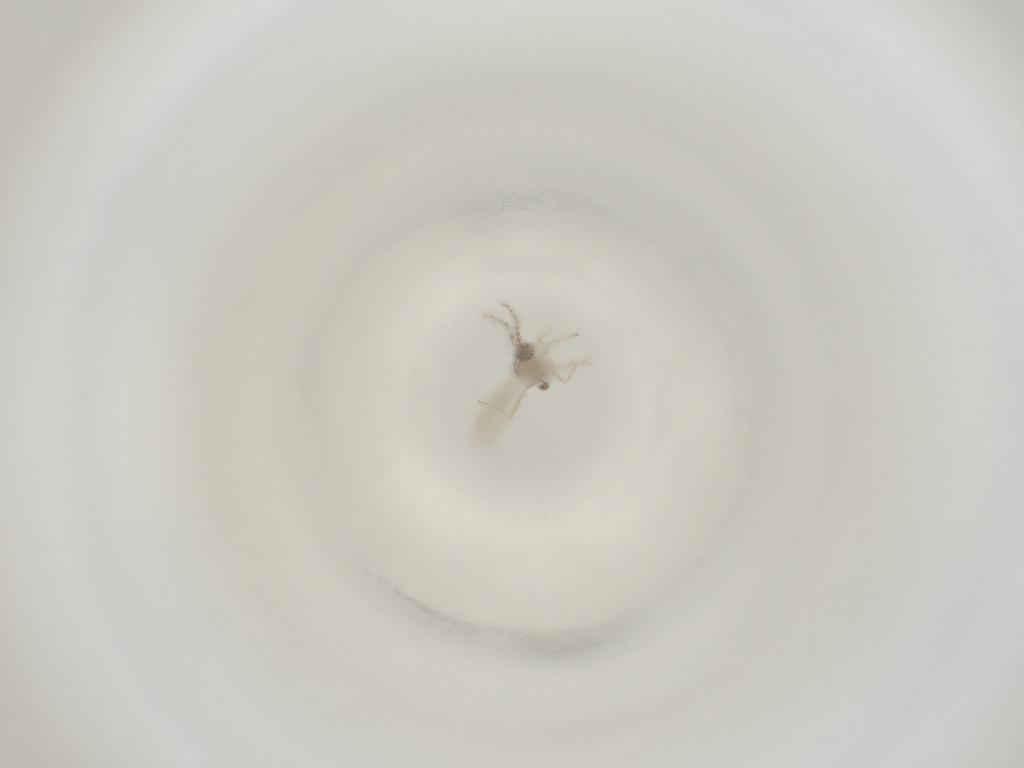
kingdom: Animalia
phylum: Arthropoda
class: Insecta
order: Diptera
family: Cecidomyiidae
